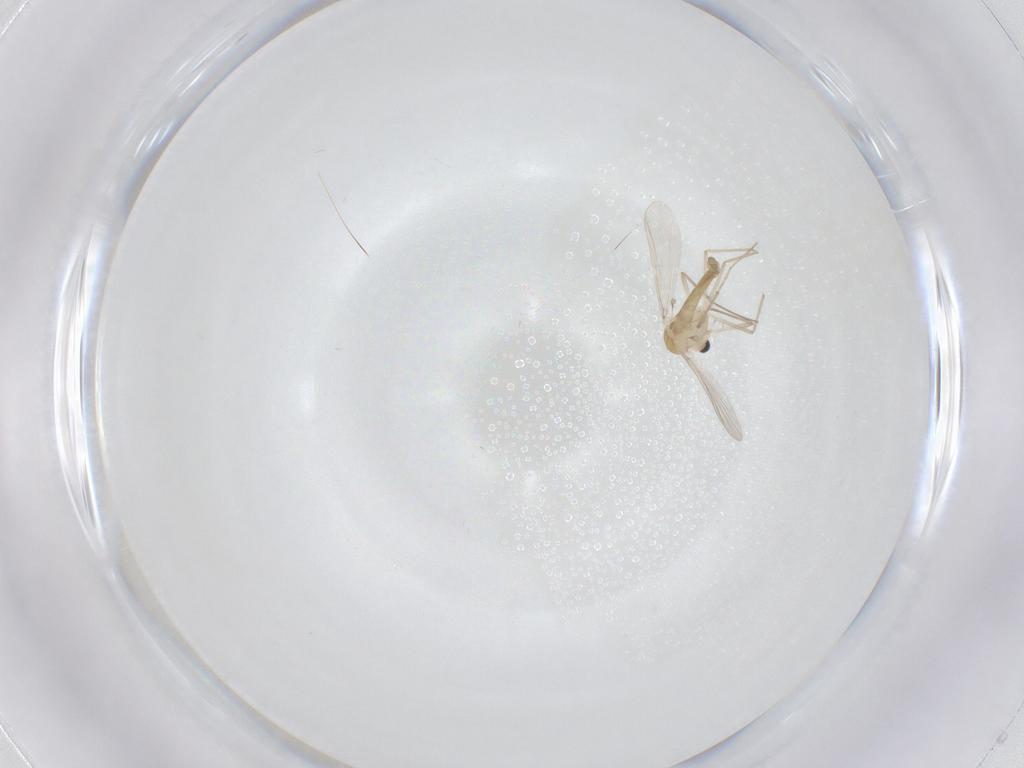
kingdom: Animalia
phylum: Arthropoda
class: Insecta
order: Diptera
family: Chironomidae
